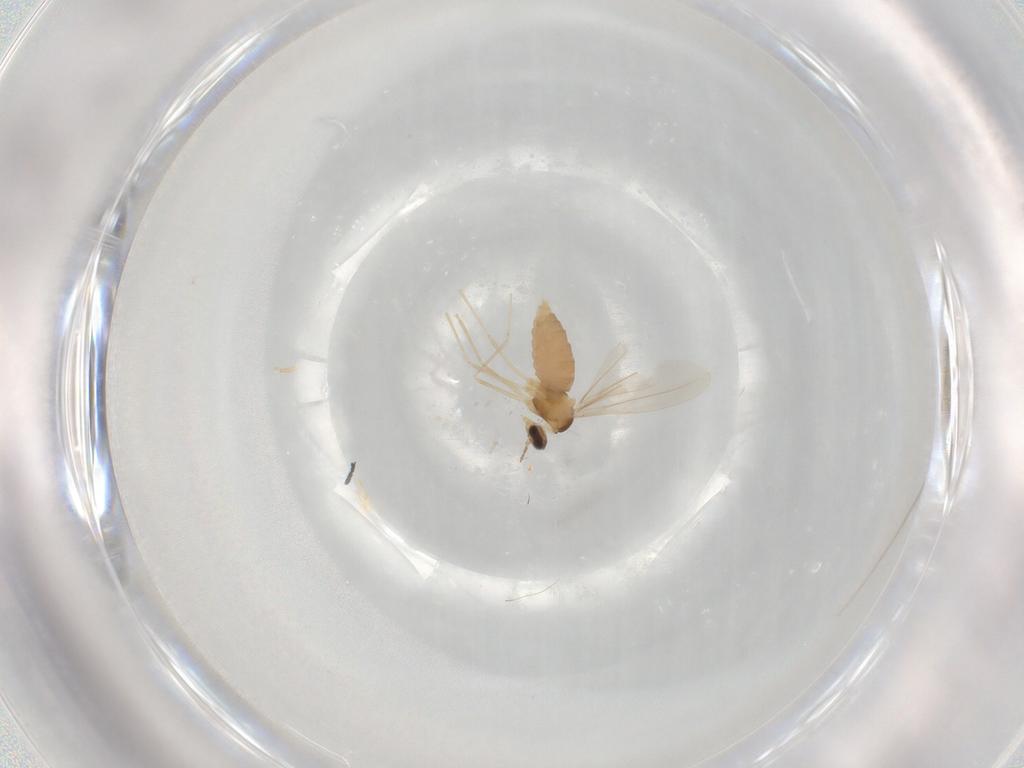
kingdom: Animalia
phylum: Arthropoda
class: Insecta
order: Diptera
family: Cecidomyiidae
